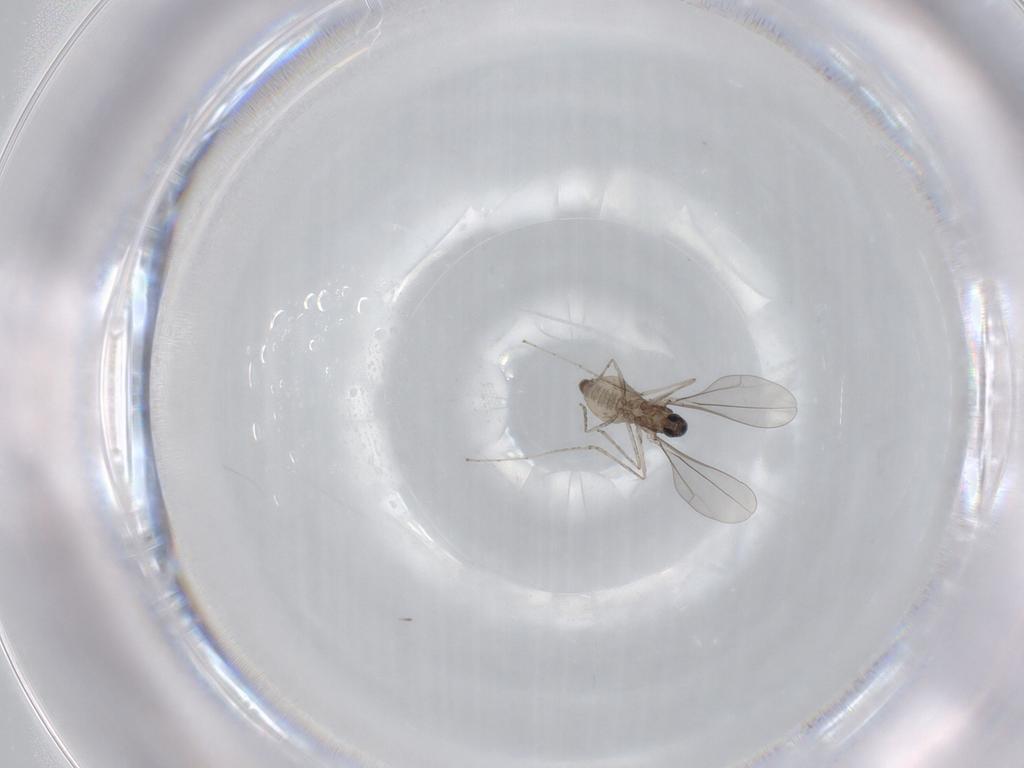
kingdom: Animalia
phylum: Arthropoda
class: Insecta
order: Diptera
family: Cecidomyiidae
